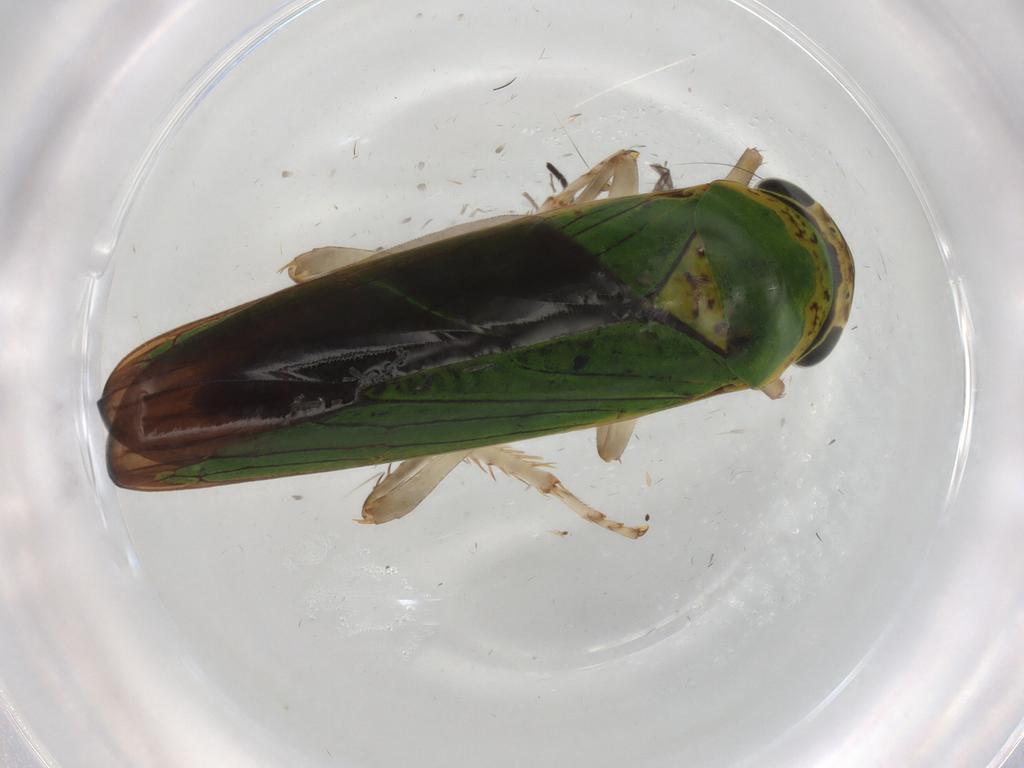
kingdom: Animalia
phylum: Arthropoda
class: Insecta
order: Hemiptera
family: Cicadellidae
